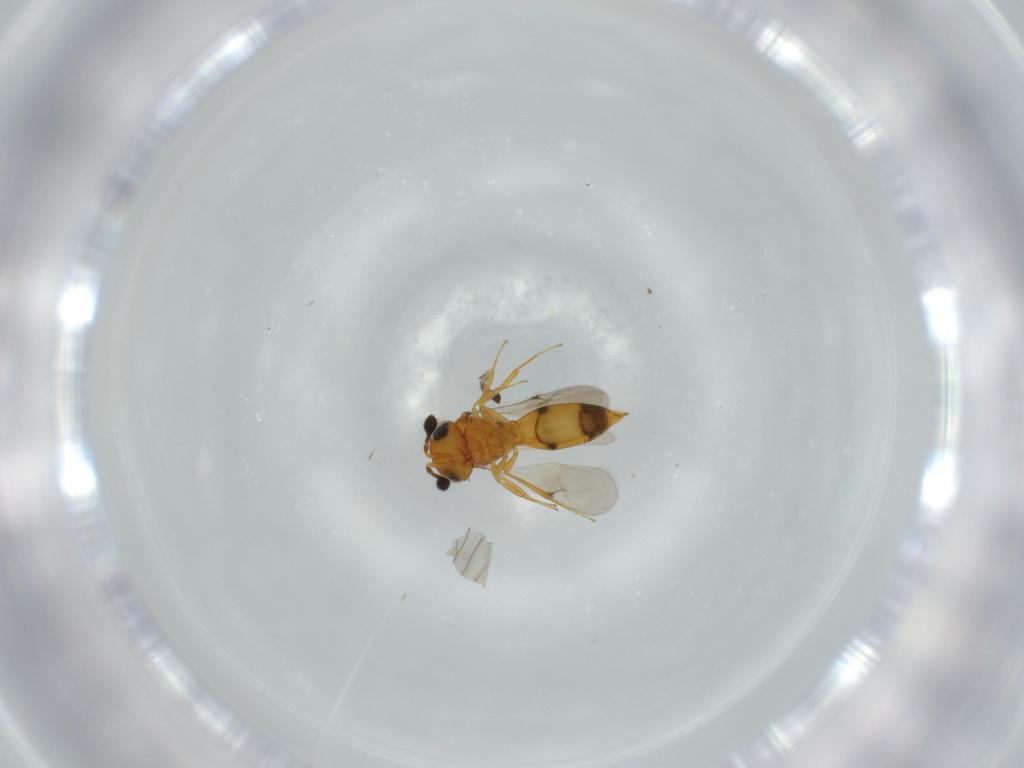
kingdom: Animalia
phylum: Arthropoda
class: Insecta
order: Hymenoptera
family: Scelionidae
